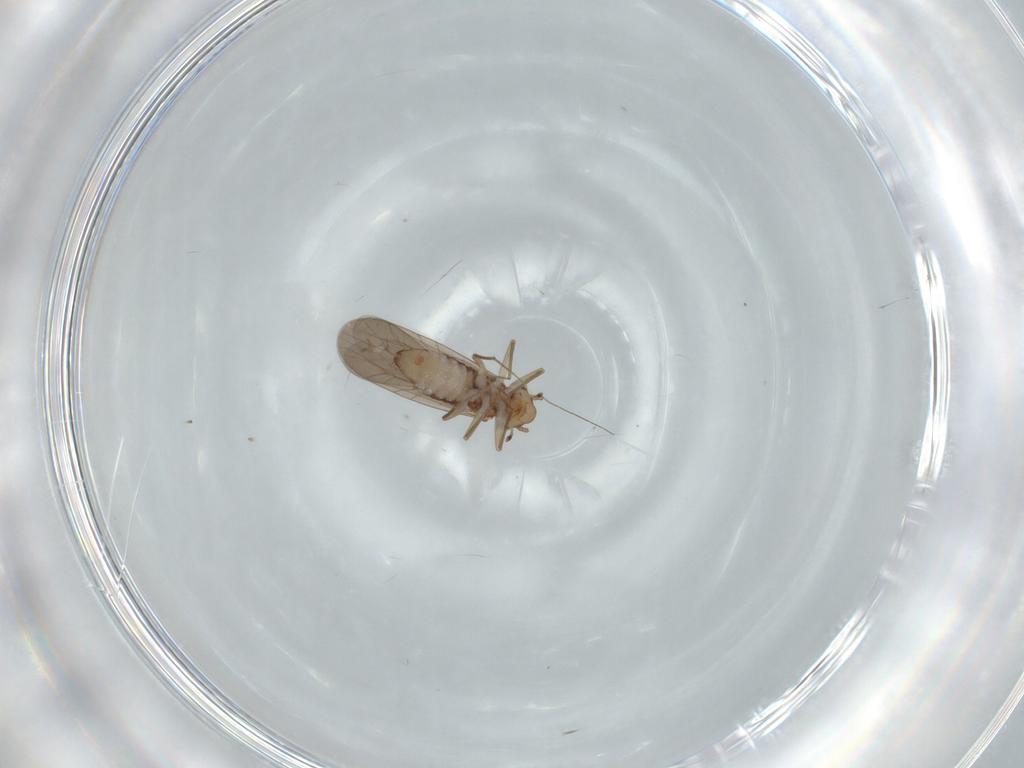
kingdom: Animalia
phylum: Arthropoda
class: Insecta
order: Psocodea
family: Lepidopsocidae
